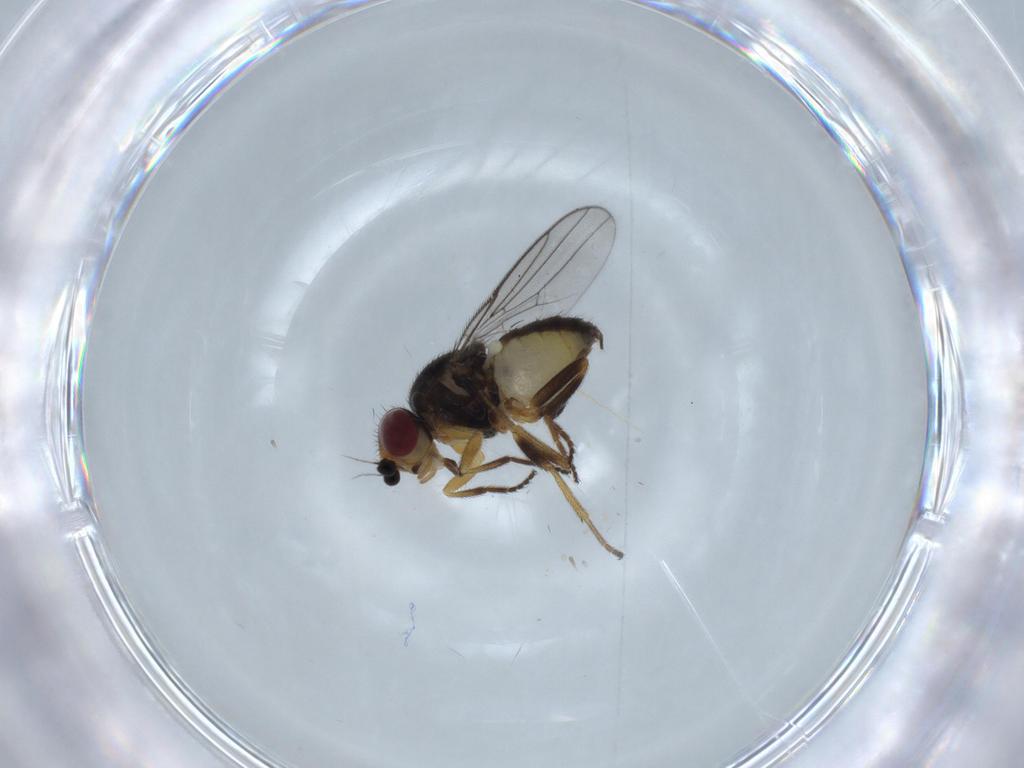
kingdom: Animalia
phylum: Arthropoda
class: Insecta
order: Diptera
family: Chloropidae
